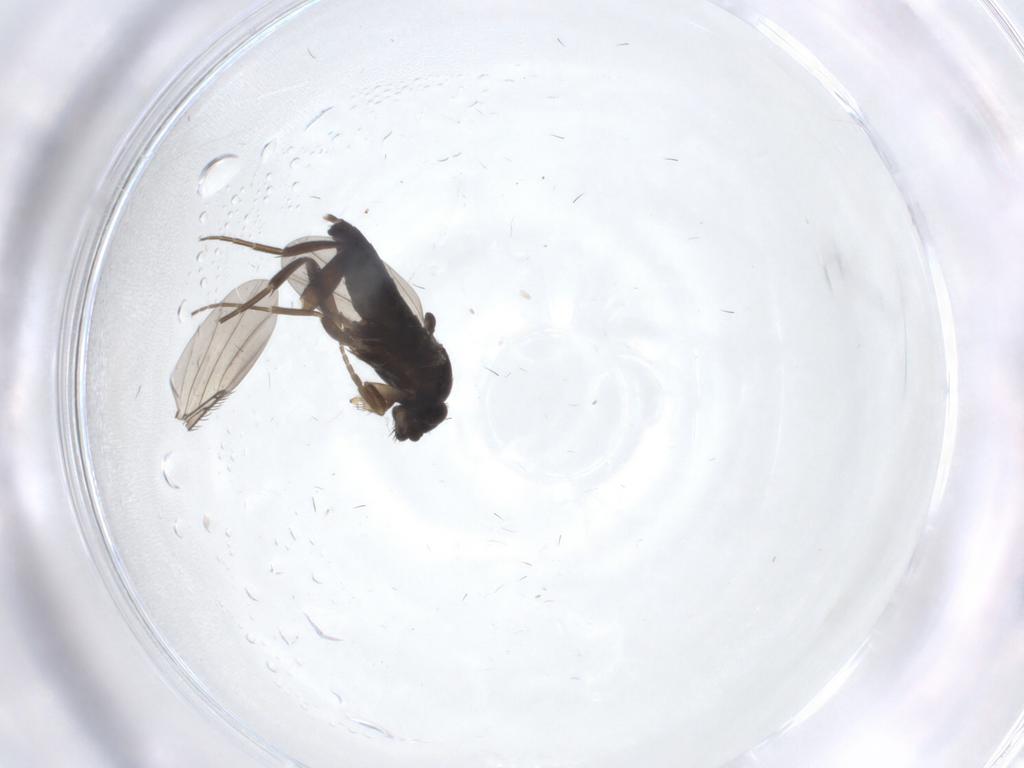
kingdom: Animalia
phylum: Arthropoda
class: Insecta
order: Diptera
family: Phoridae
